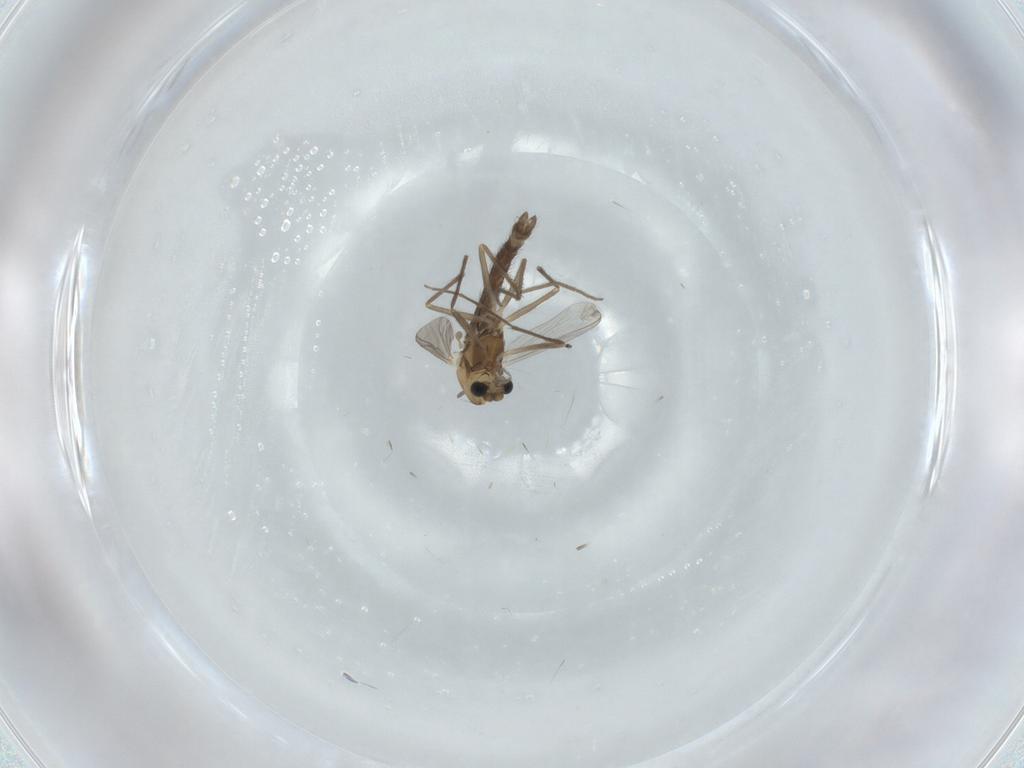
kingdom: Animalia
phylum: Arthropoda
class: Insecta
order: Diptera
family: Chironomidae
